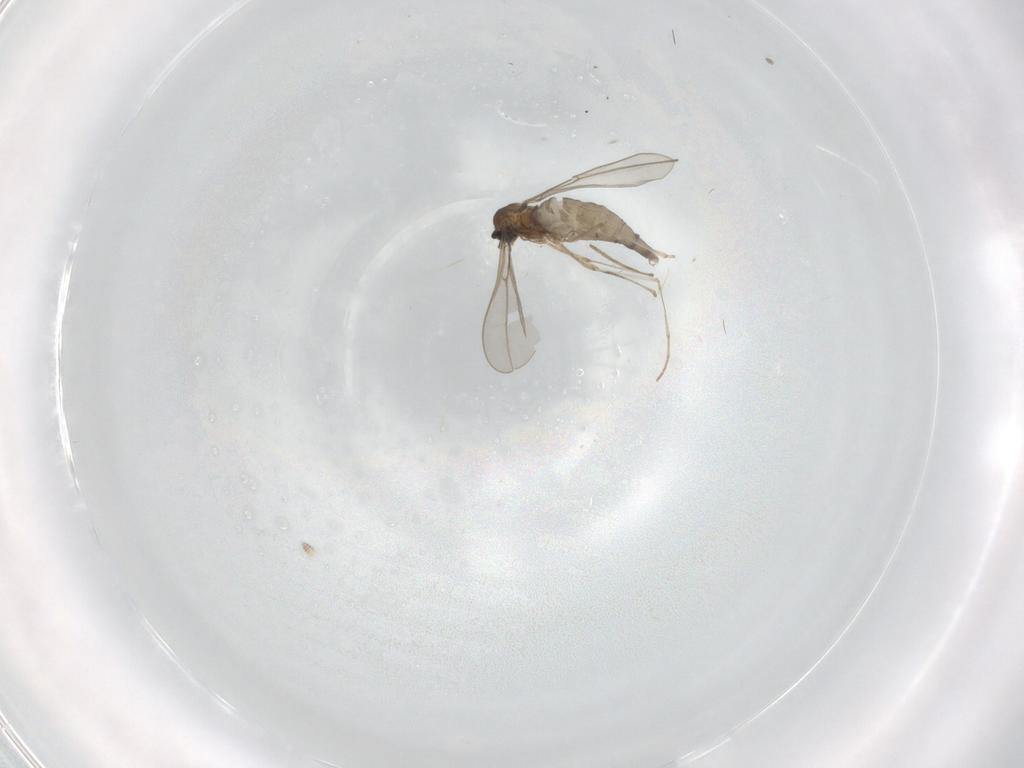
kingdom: Animalia
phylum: Arthropoda
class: Insecta
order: Diptera
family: Cecidomyiidae
